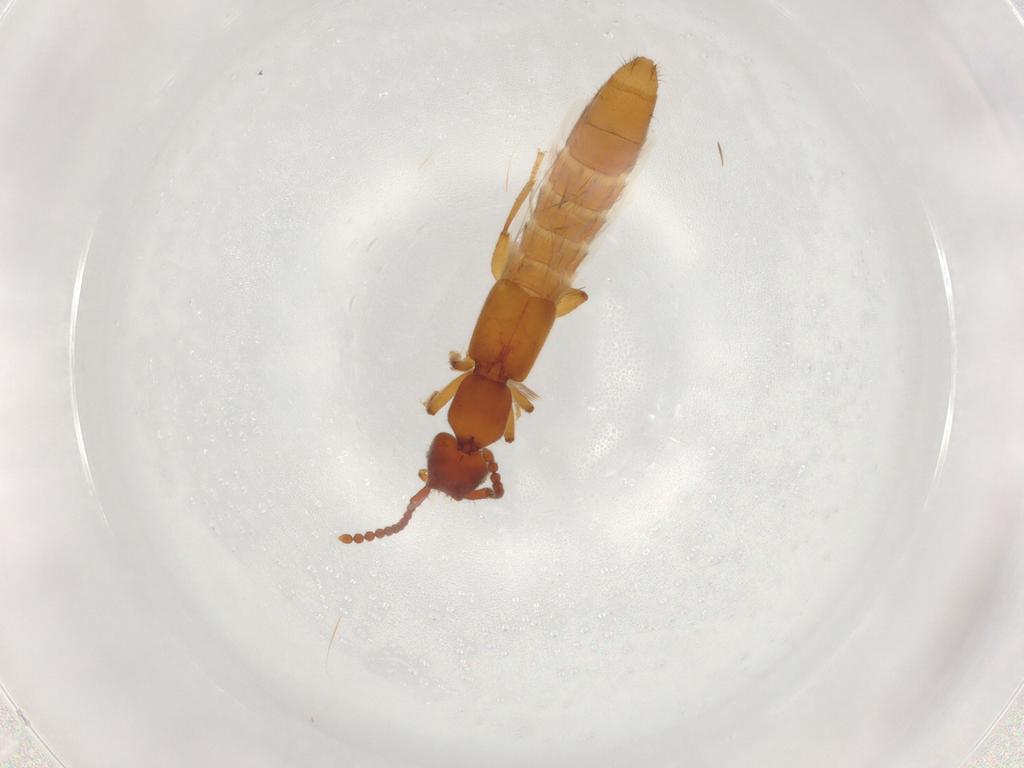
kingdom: Animalia
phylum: Arthropoda
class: Insecta
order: Coleoptera
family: Staphylinidae
